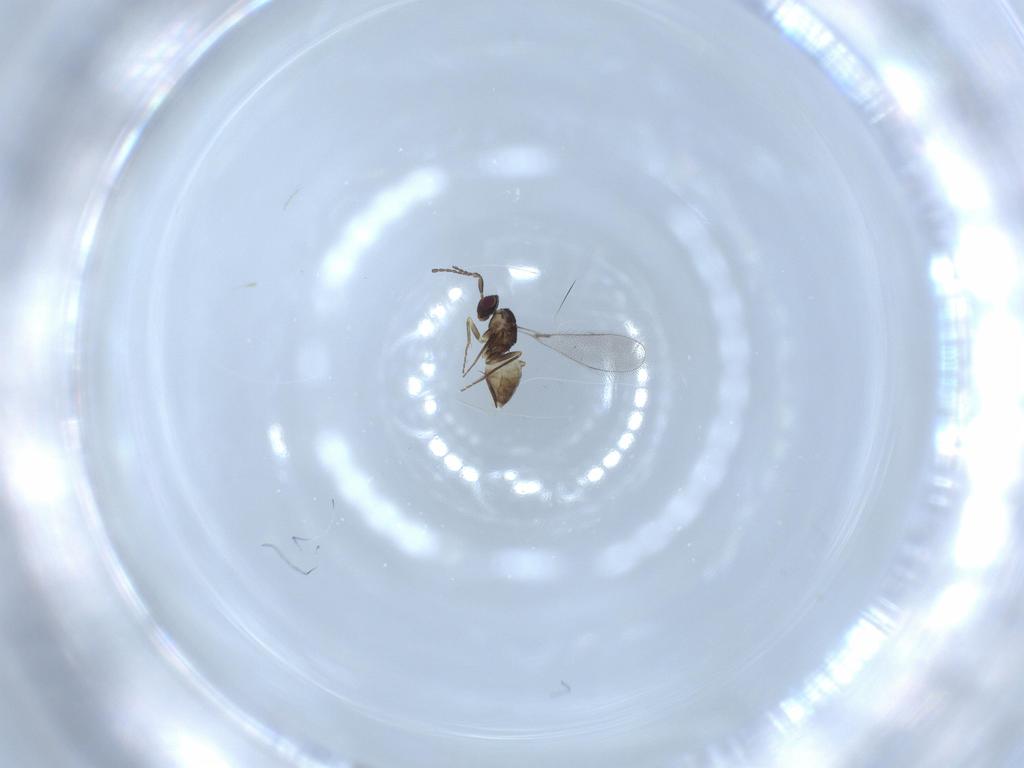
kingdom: Animalia
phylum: Arthropoda
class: Insecta
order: Hymenoptera
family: Mymaridae
